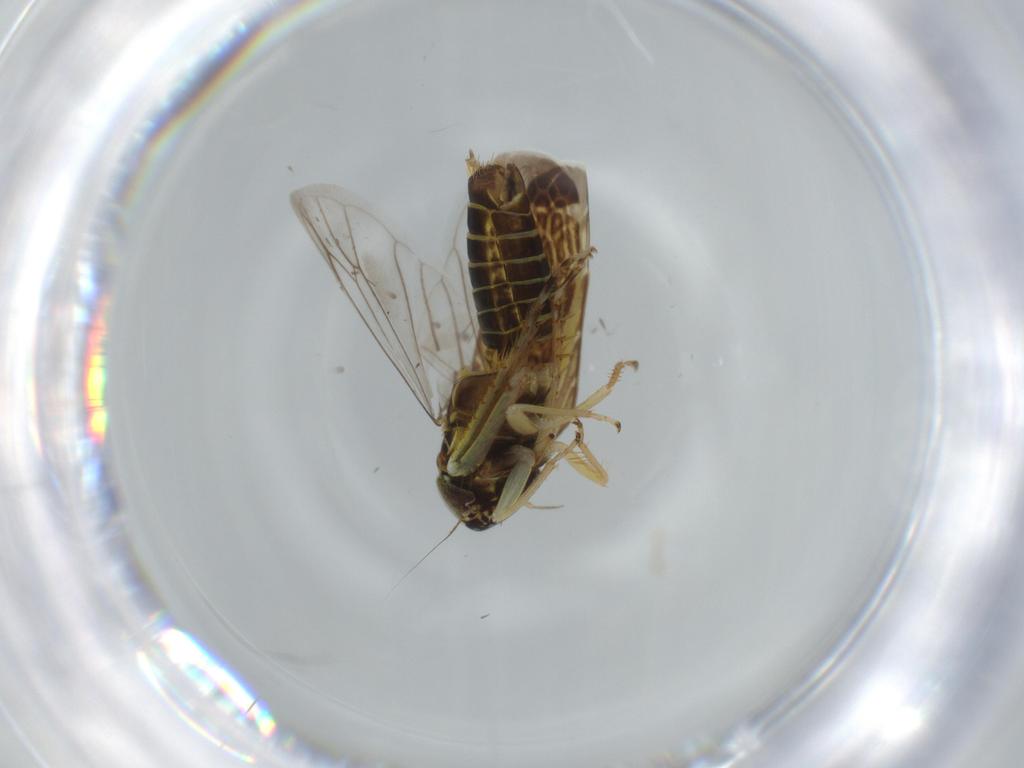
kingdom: Animalia
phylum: Arthropoda
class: Insecta
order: Hemiptera
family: Cicadellidae
